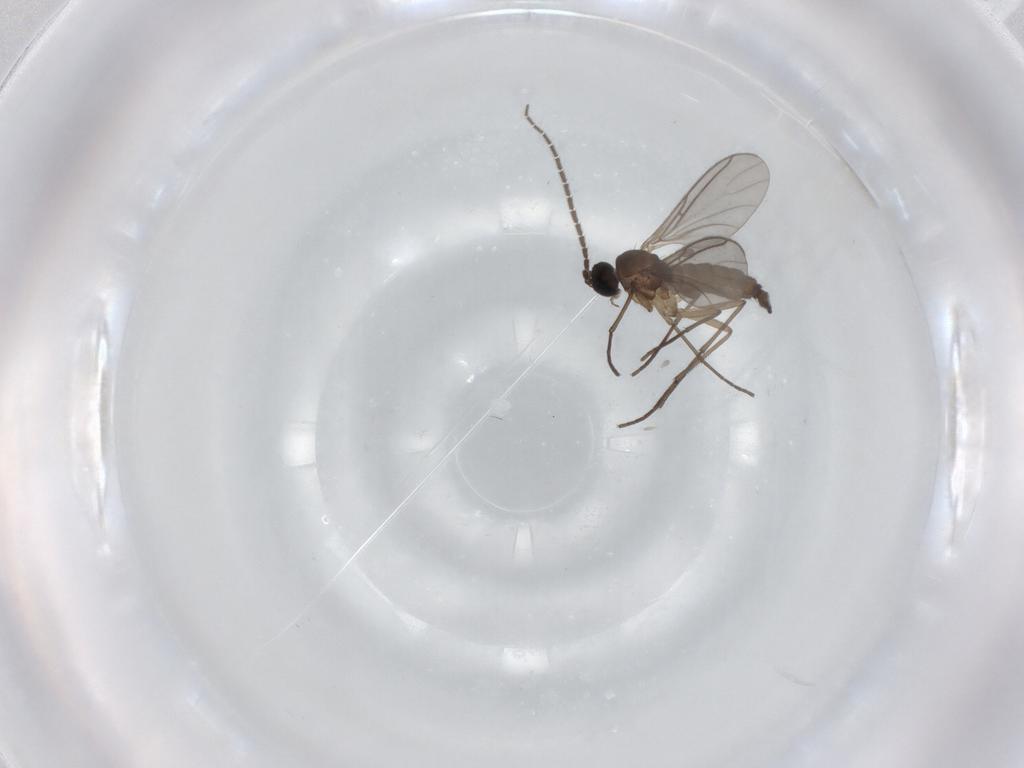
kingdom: Animalia
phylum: Arthropoda
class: Insecta
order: Diptera
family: Sciaridae
